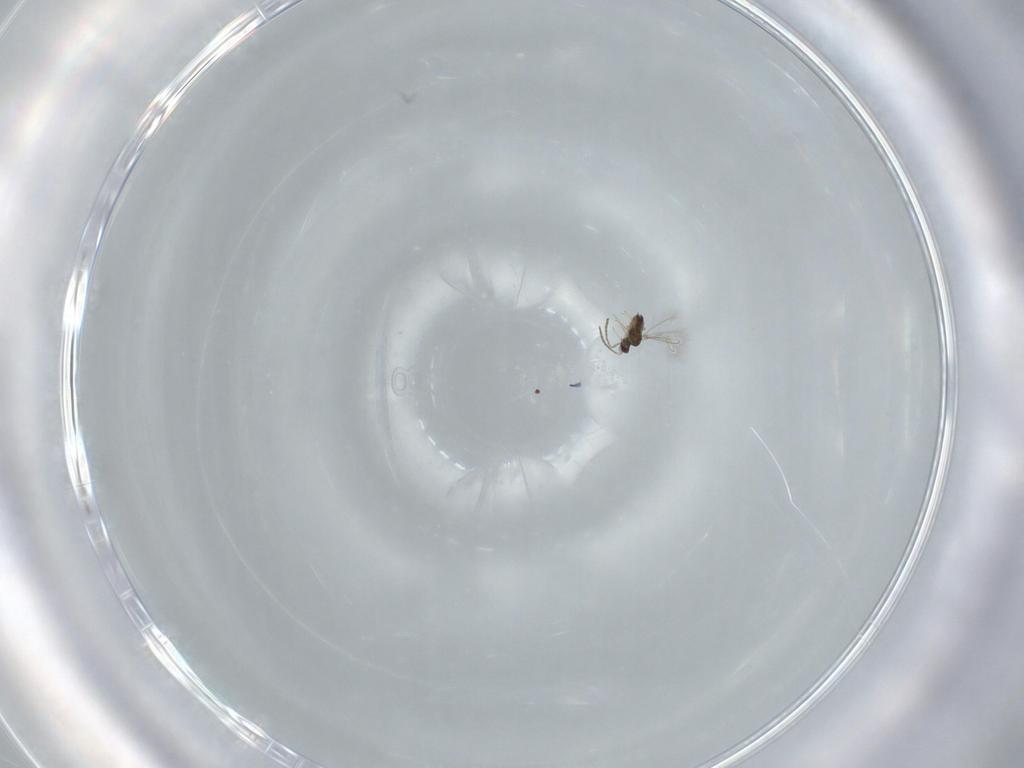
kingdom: Animalia
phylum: Arthropoda
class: Insecta
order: Hymenoptera
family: Mymaridae
